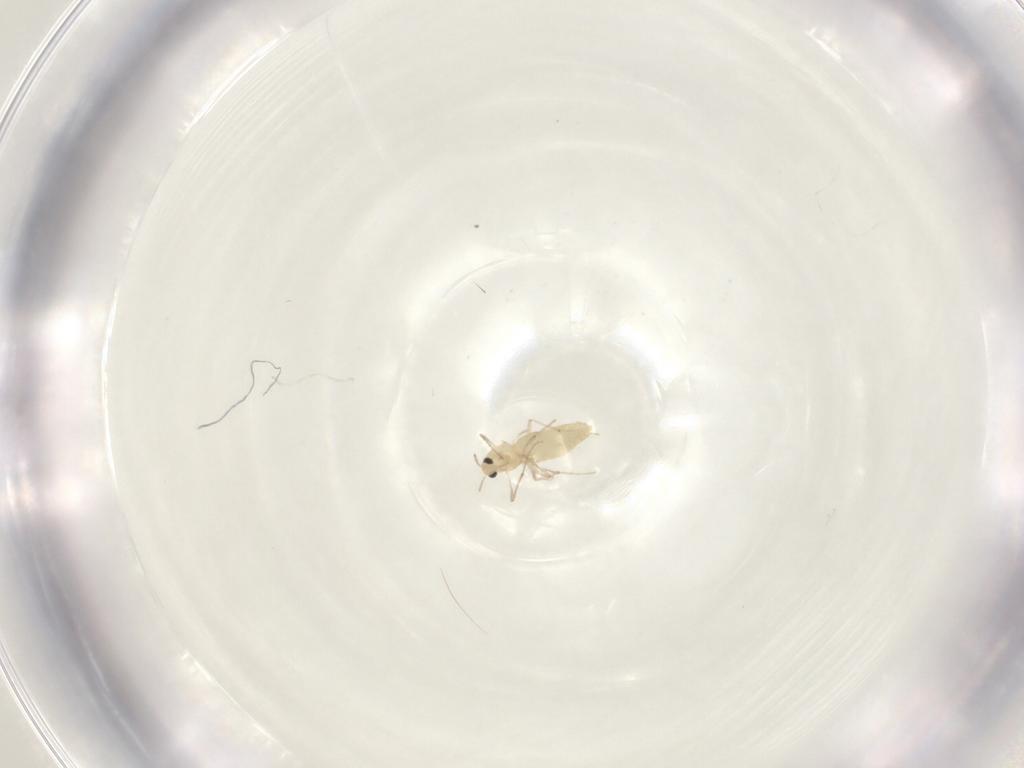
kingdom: Animalia
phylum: Arthropoda
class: Insecta
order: Diptera
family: Chironomidae
